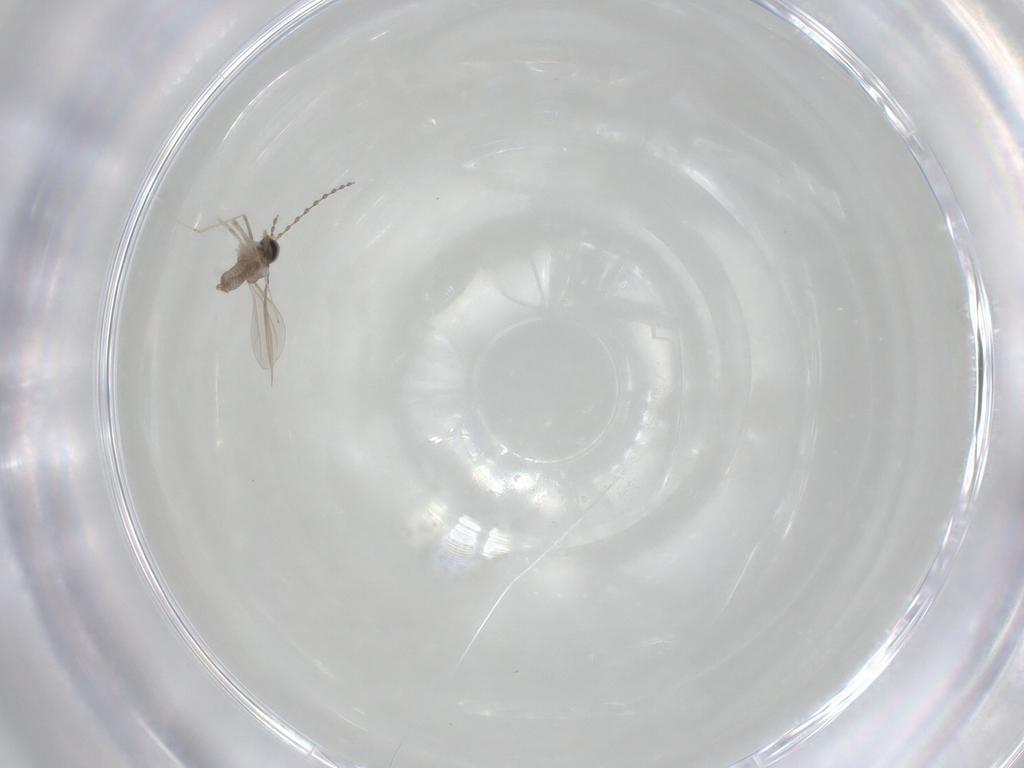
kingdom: Animalia
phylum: Arthropoda
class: Insecta
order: Diptera
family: Cecidomyiidae
